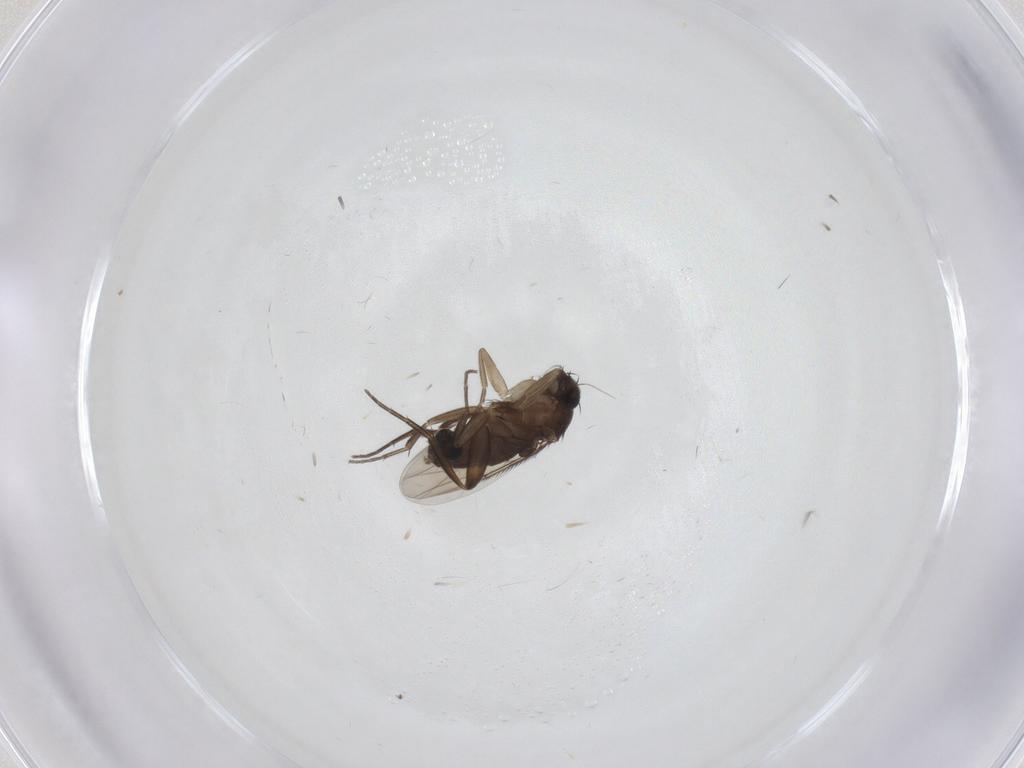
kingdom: Animalia
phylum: Arthropoda
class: Insecta
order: Diptera
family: Phoridae
